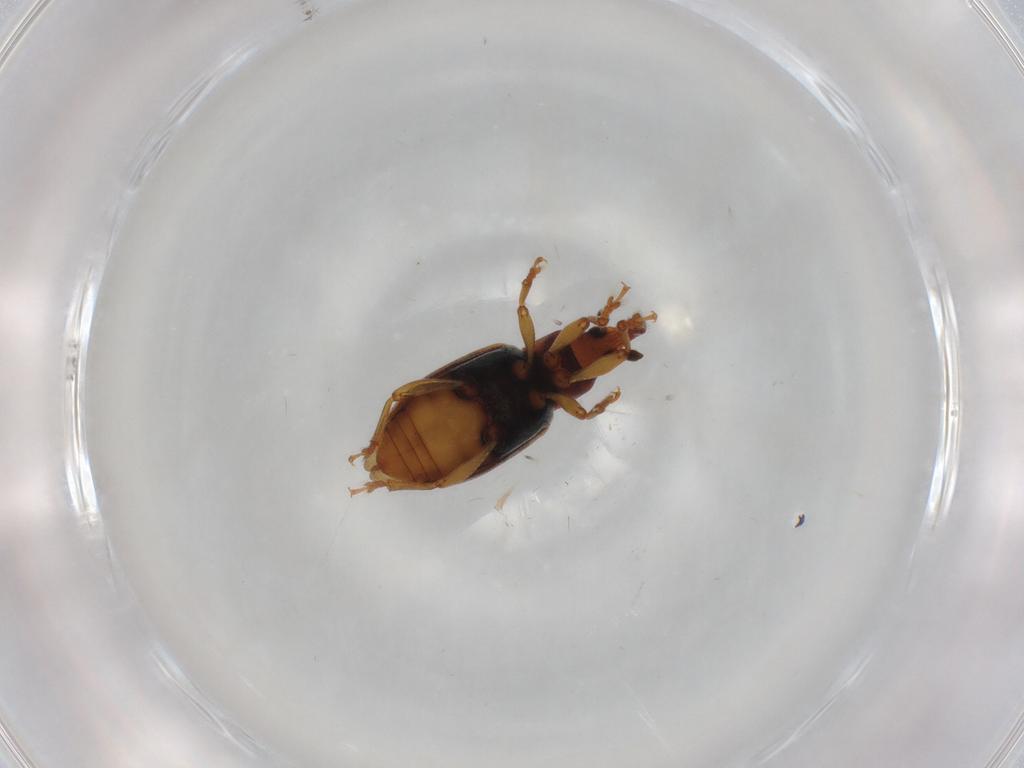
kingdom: Animalia
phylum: Arthropoda
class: Insecta
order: Coleoptera
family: Curculionidae
